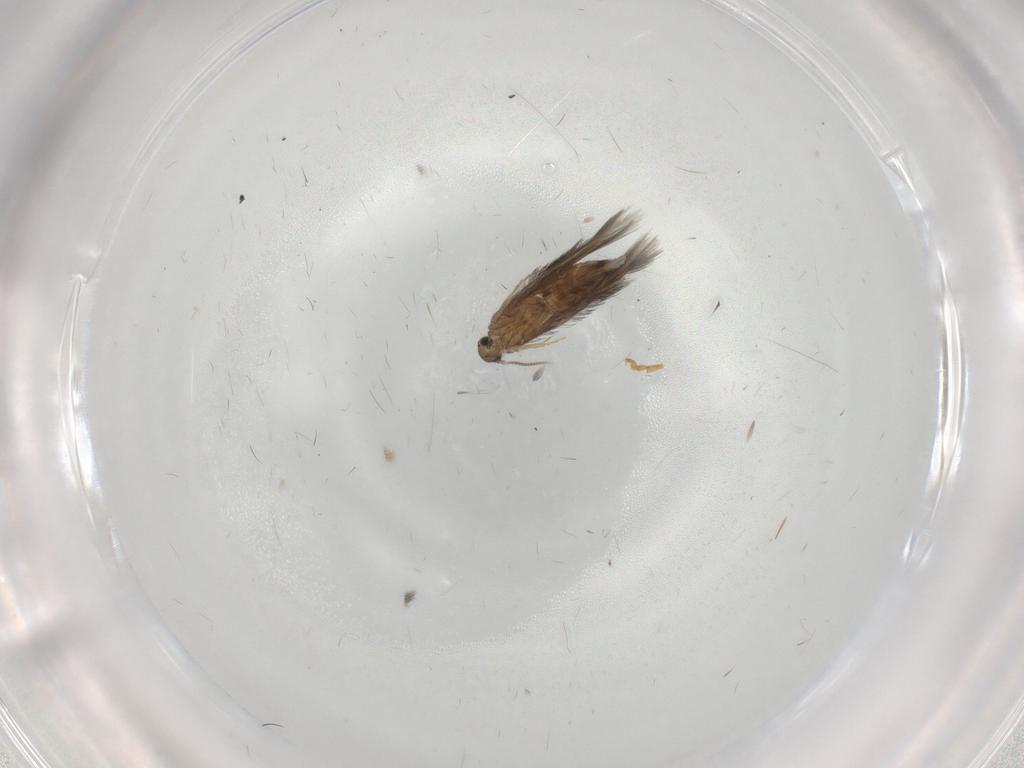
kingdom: Animalia
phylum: Arthropoda
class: Insecta
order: Trichoptera
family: Hydroptilidae
